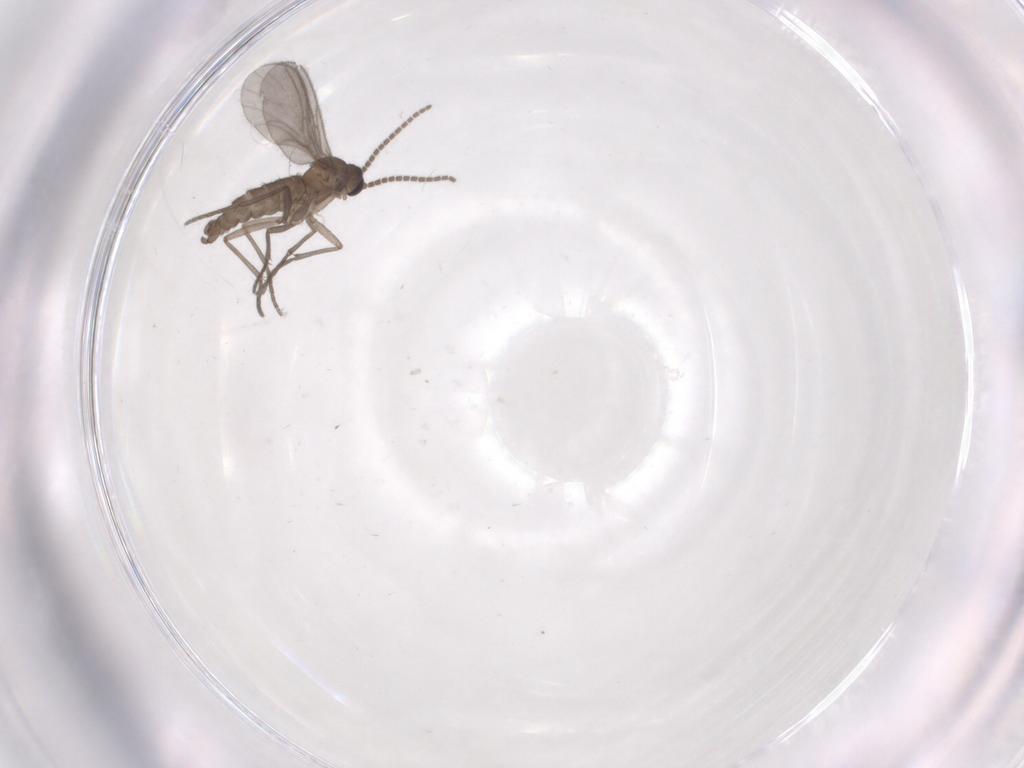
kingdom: Animalia
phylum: Arthropoda
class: Insecta
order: Diptera
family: Sciaridae
